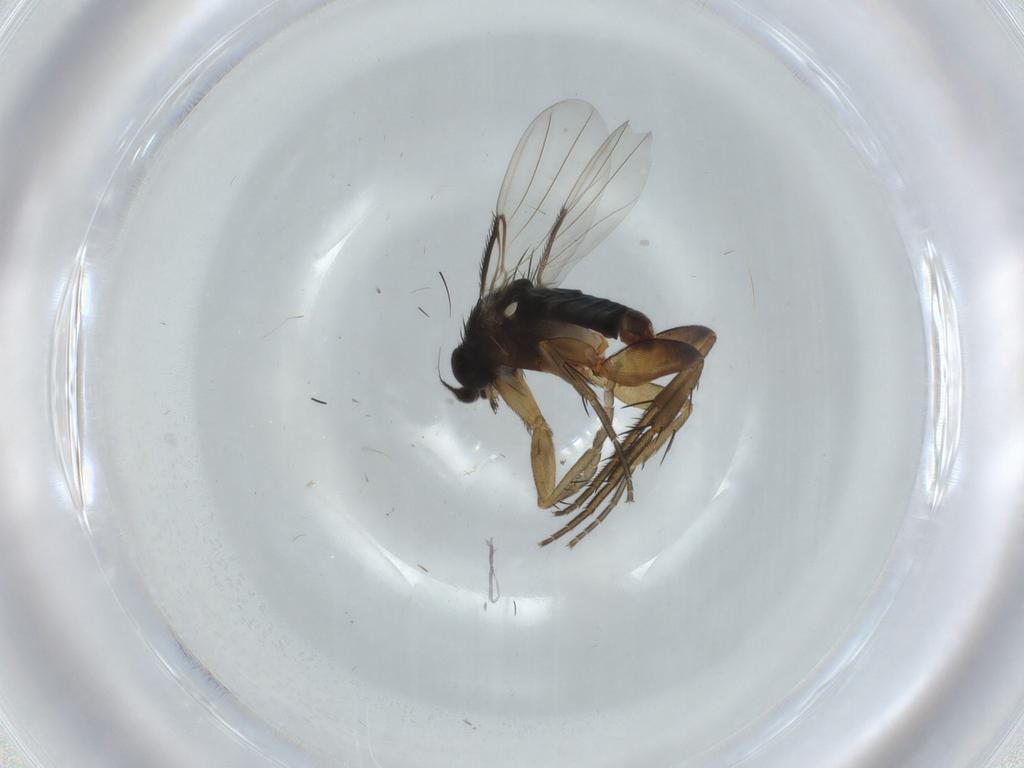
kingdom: Animalia
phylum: Arthropoda
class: Insecta
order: Diptera
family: Phoridae
